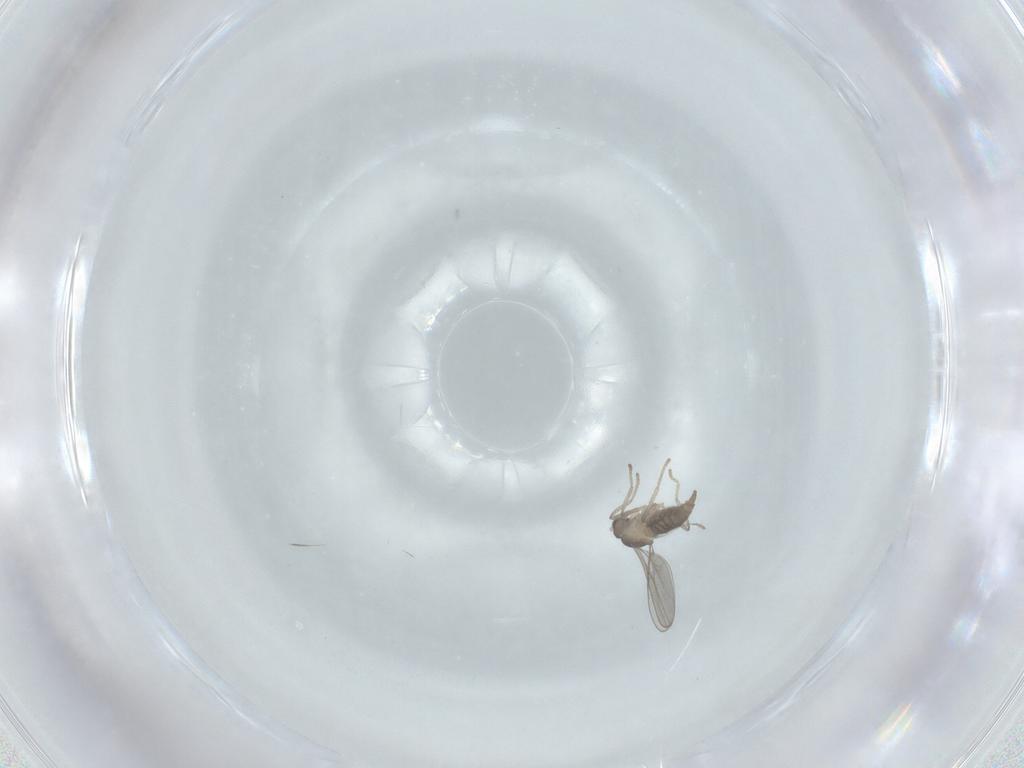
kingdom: Animalia
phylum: Arthropoda
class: Insecta
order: Diptera
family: Cecidomyiidae
